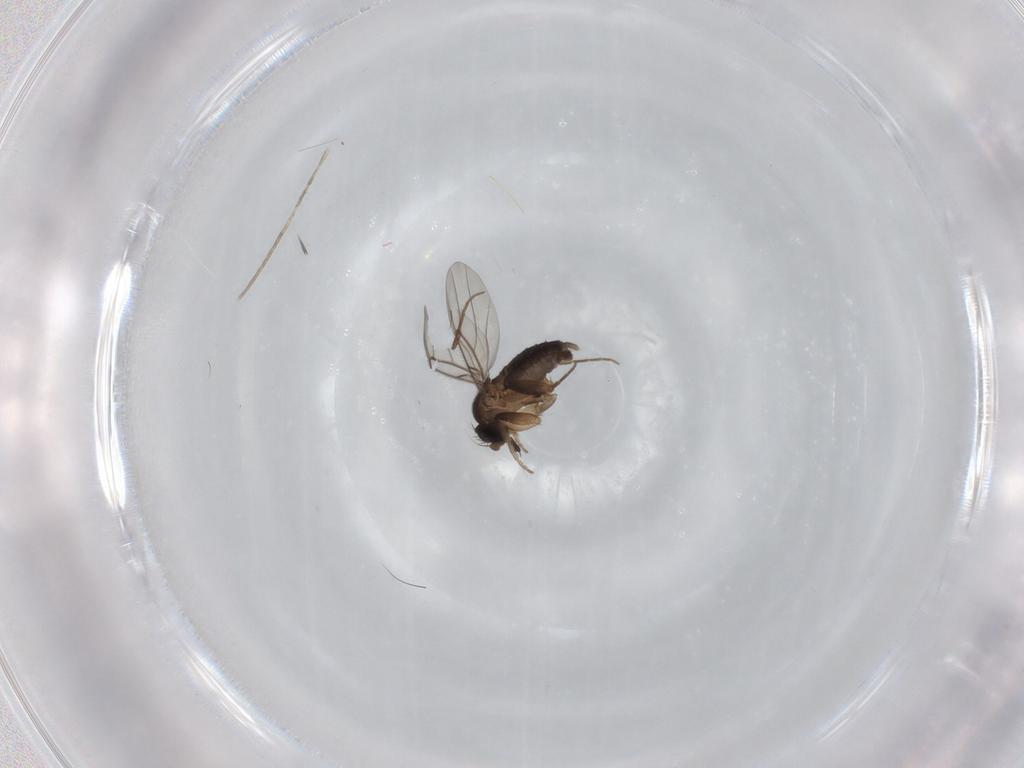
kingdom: Animalia
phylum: Arthropoda
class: Insecta
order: Diptera
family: Phoridae
